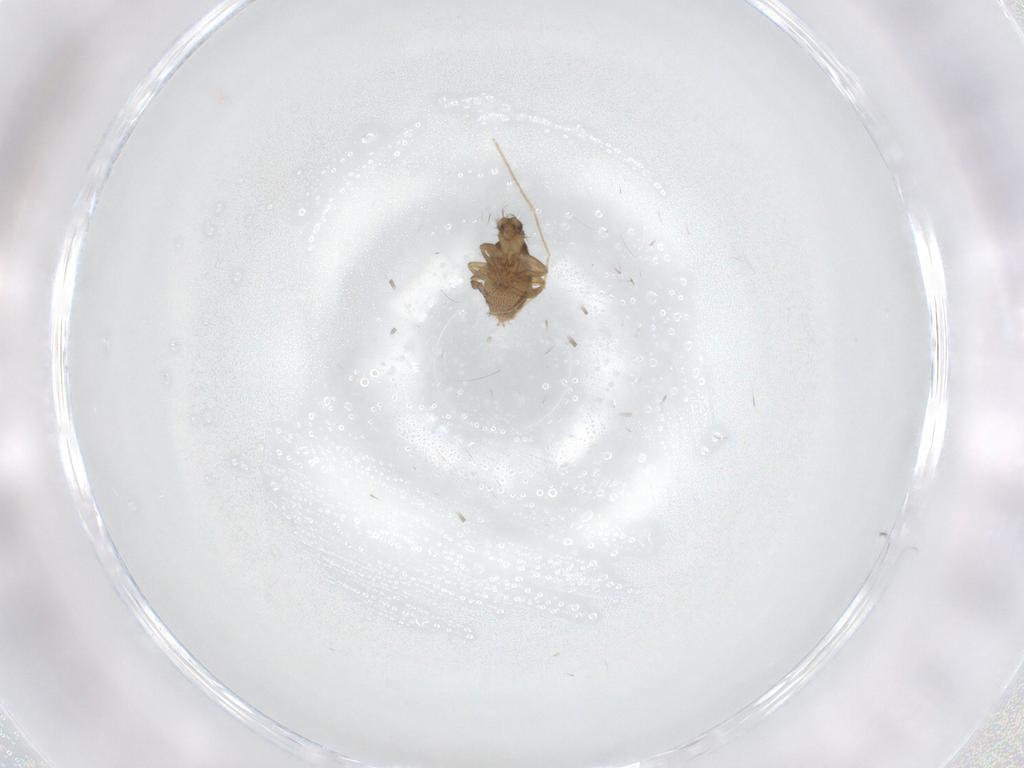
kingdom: Animalia
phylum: Arthropoda
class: Insecta
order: Diptera
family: Phoridae
